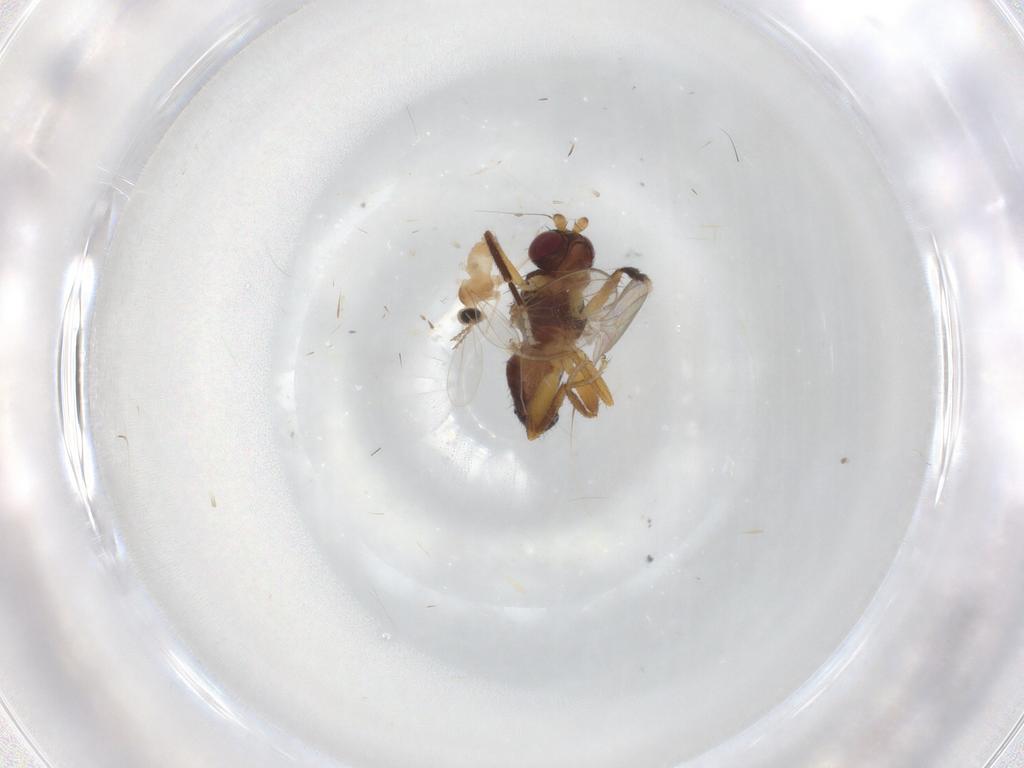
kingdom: Animalia
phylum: Arthropoda
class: Insecta
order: Diptera
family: Cypselosomatidae
